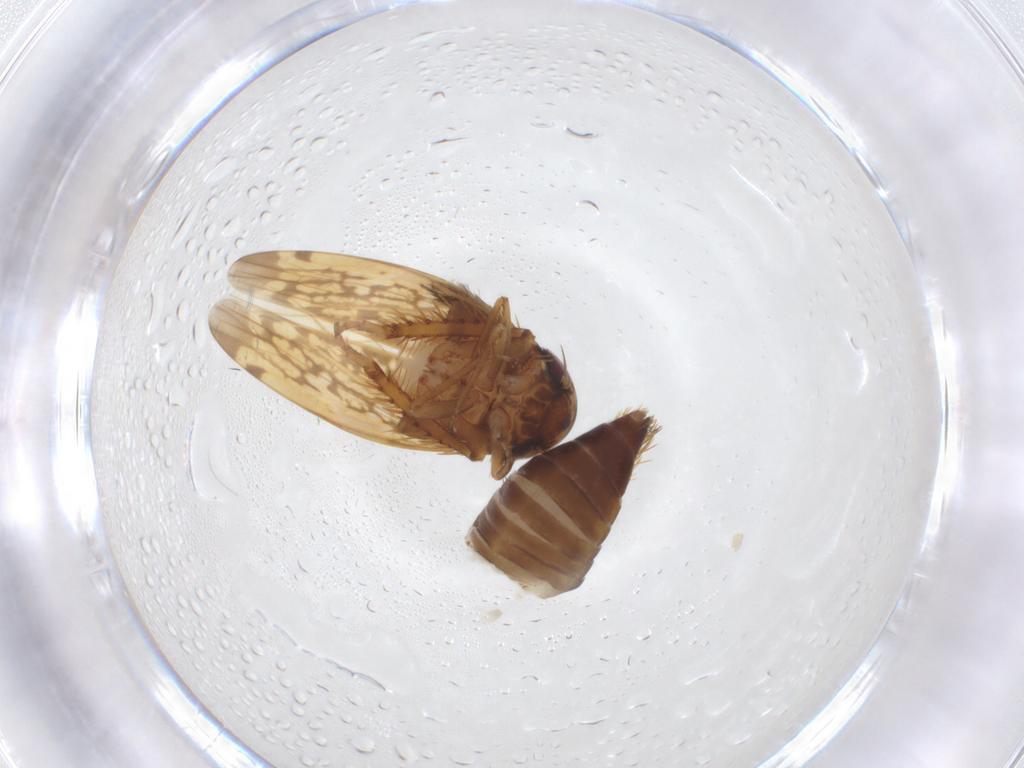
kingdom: Animalia
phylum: Arthropoda
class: Insecta
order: Hemiptera
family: Cicadellidae
